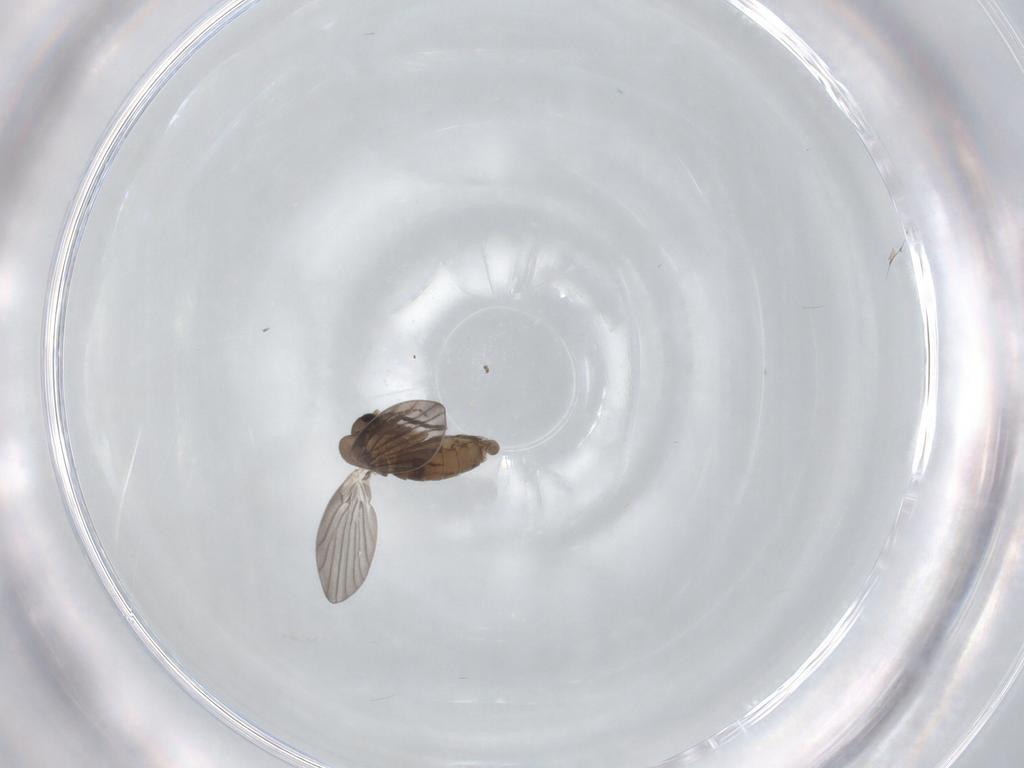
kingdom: Animalia
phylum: Arthropoda
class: Insecta
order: Diptera
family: Psychodidae
